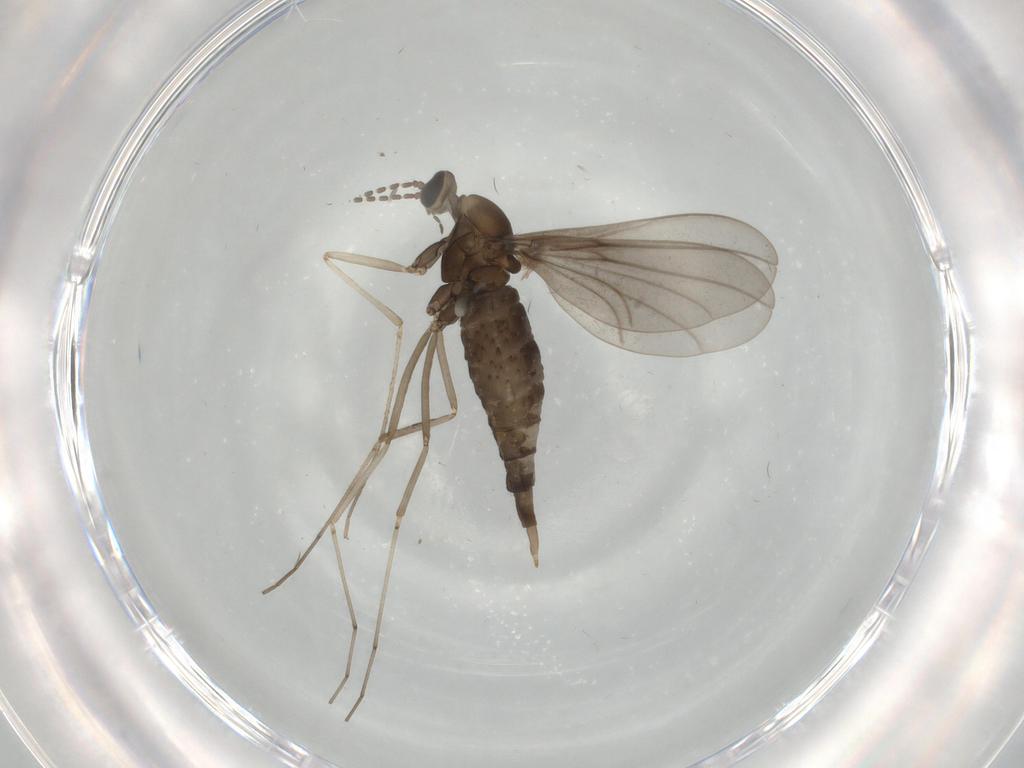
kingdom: Animalia
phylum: Arthropoda
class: Insecta
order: Diptera
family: Cecidomyiidae
